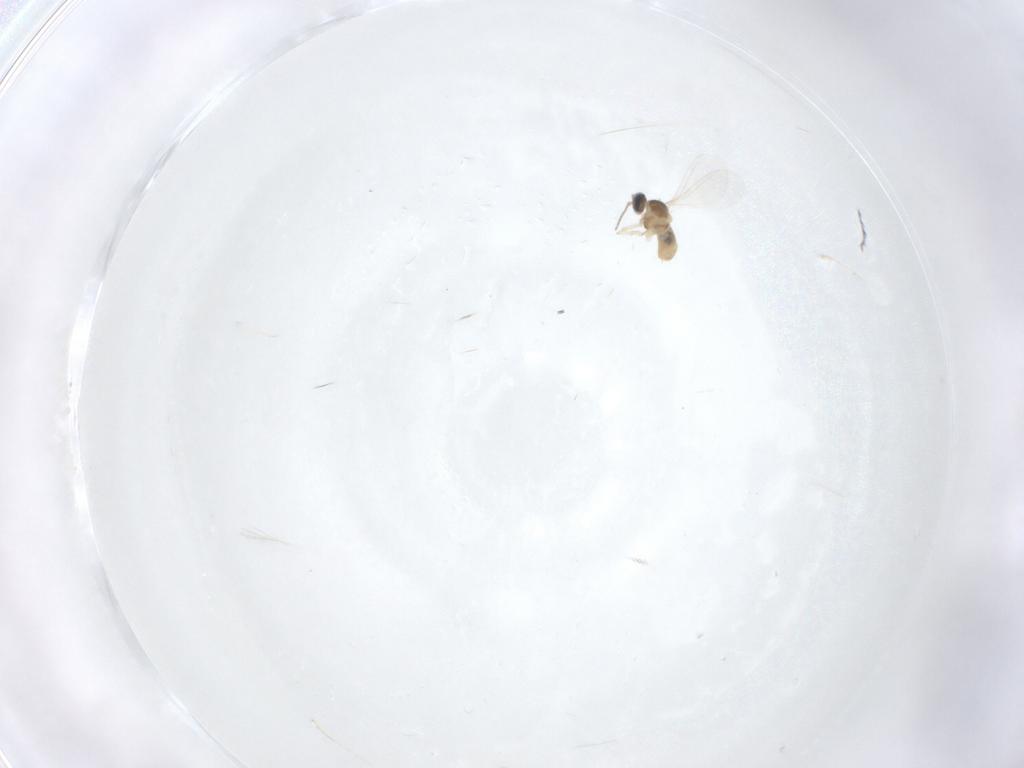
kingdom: Animalia
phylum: Arthropoda
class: Insecta
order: Diptera
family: Cecidomyiidae
